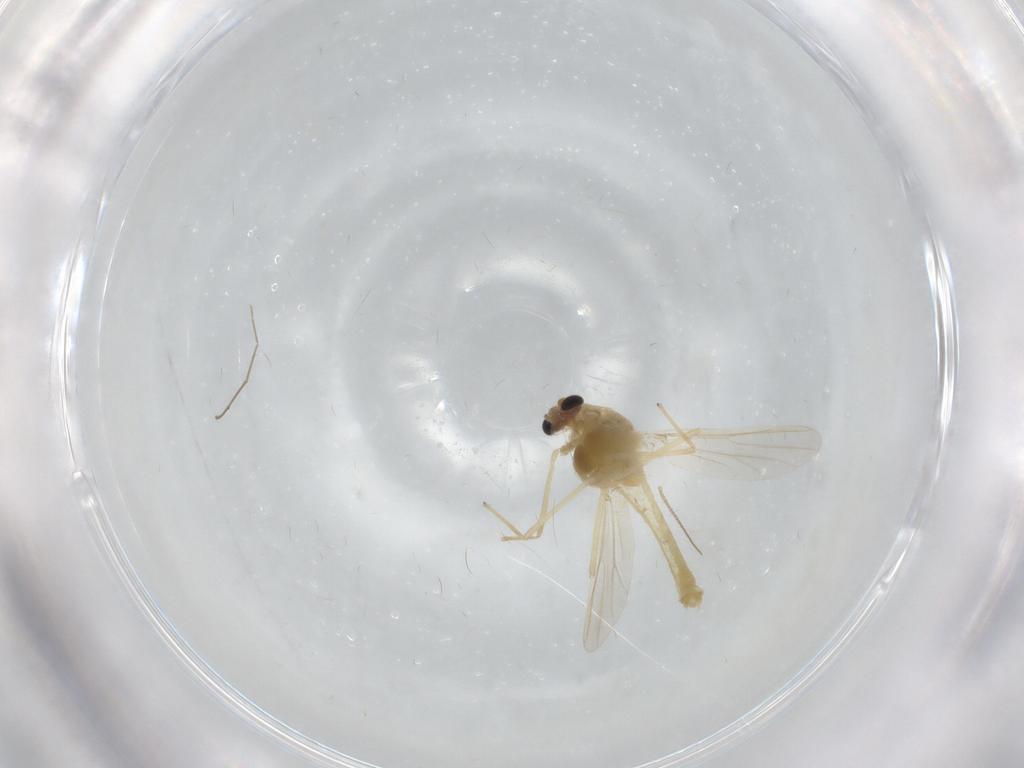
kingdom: Animalia
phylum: Arthropoda
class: Insecta
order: Diptera
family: Chironomidae
